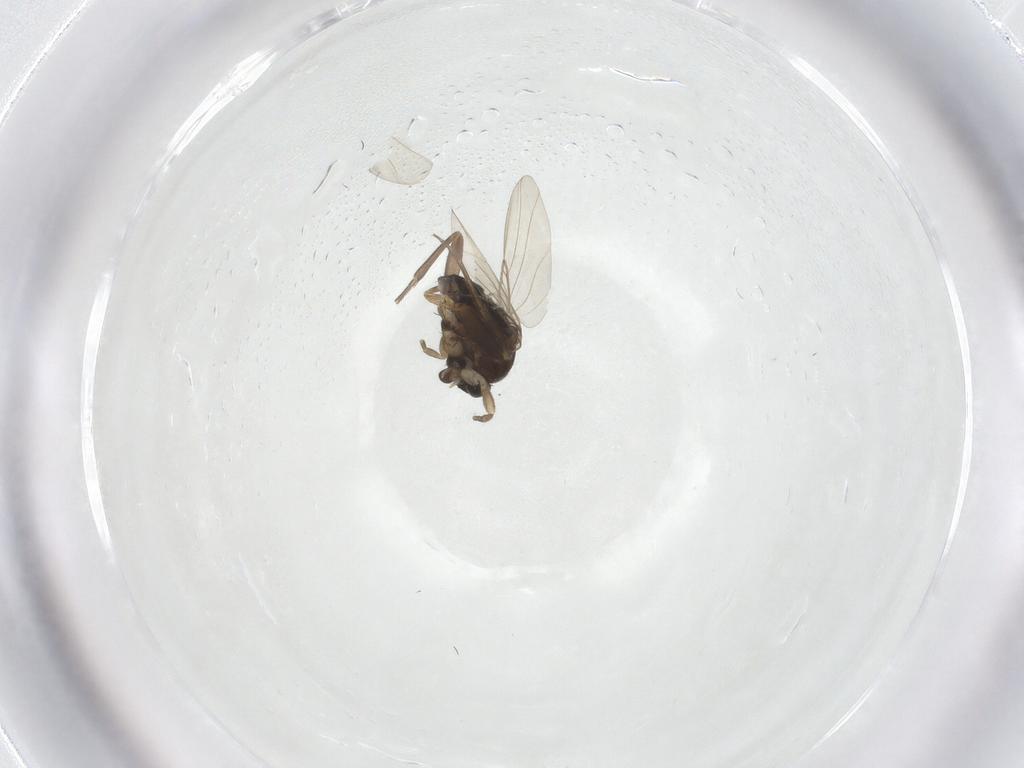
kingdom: Animalia
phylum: Arthropoda
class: Insecta
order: Diptera
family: Phoridae
